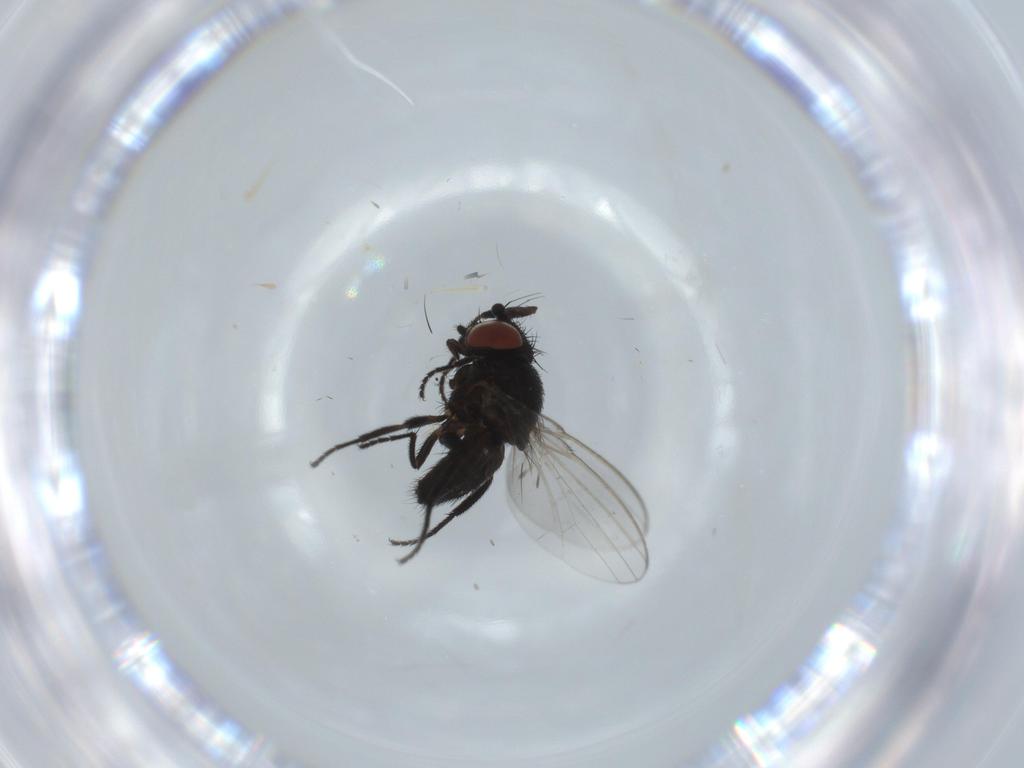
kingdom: Animalia
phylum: Arthropoda
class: Insecta
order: Diptera
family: Milichiidae
